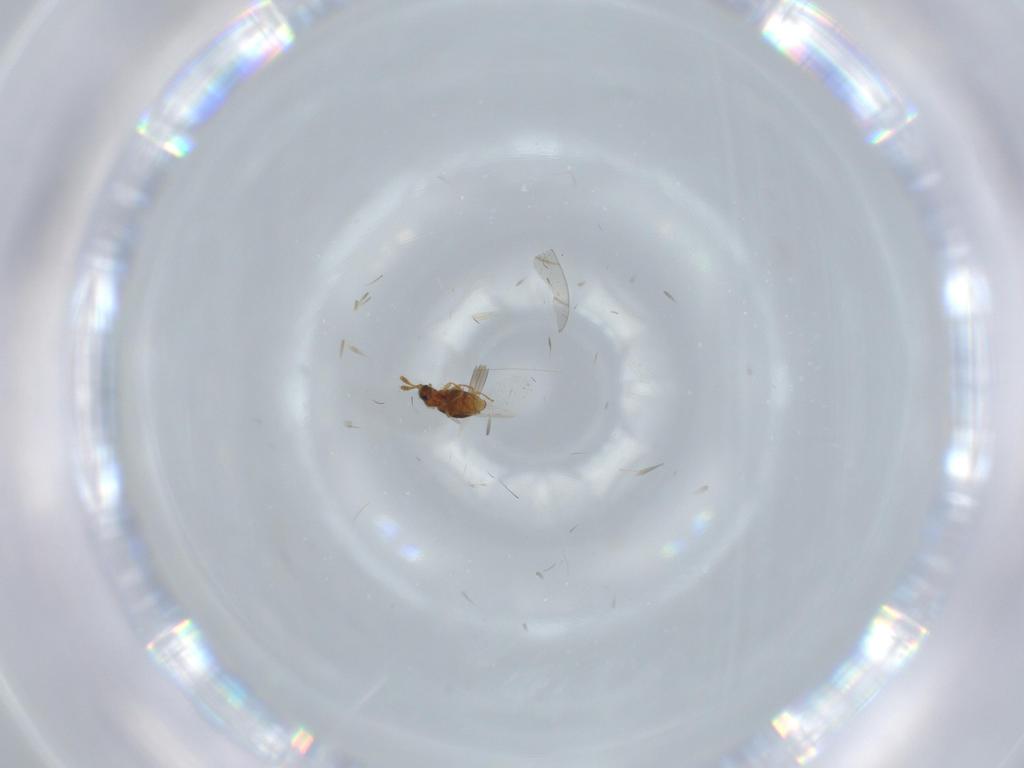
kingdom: Animalia
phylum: Arthropoda
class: Insecta
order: Coleoptera
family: Staphylinidae
